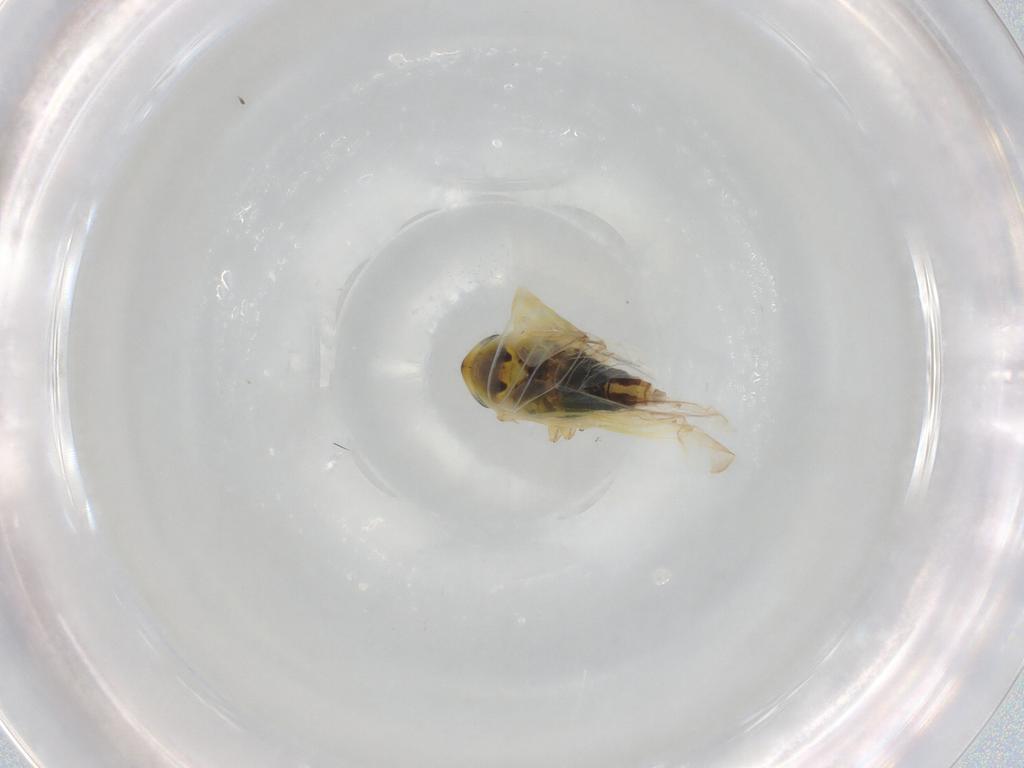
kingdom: Animalia
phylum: Arthropoda
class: Insecta
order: Hemiptera
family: Cicadellidae
